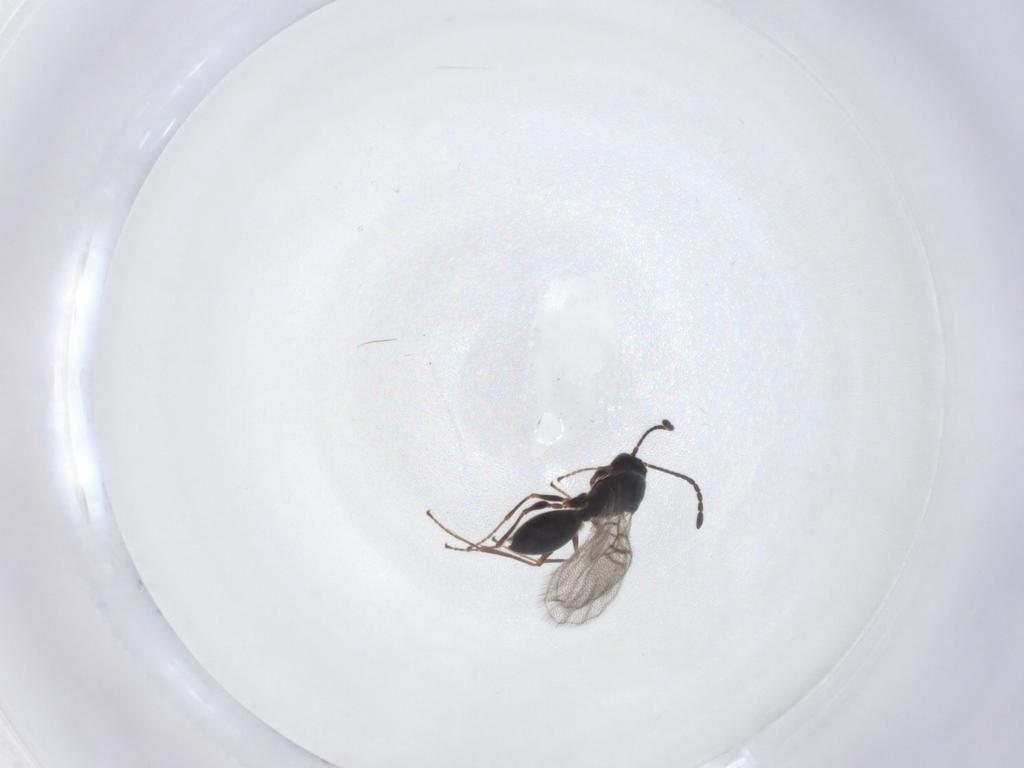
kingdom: Animalia
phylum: Arthropoda
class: Insecta
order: Hymenoptera
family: Figitidae
